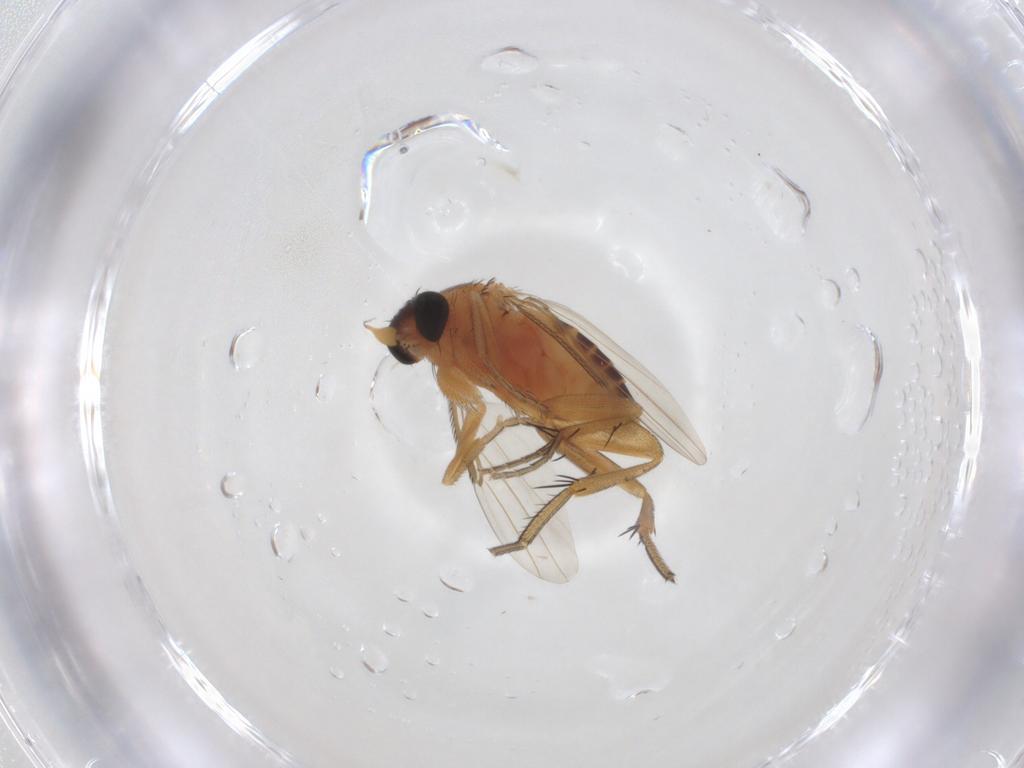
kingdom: Animalia
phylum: Arthropoda
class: Insecta
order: Diptera
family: Phoridae
